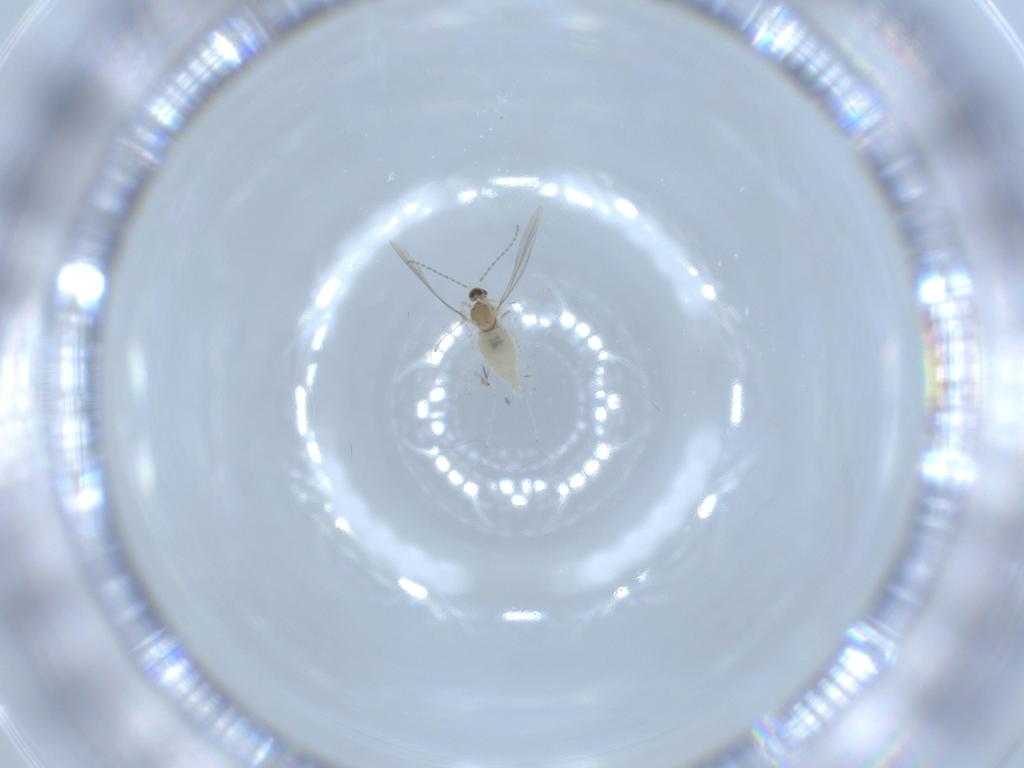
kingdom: Animalia
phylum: Arthropoda
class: Insecta
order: Diptera
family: Cecidomyiidae
